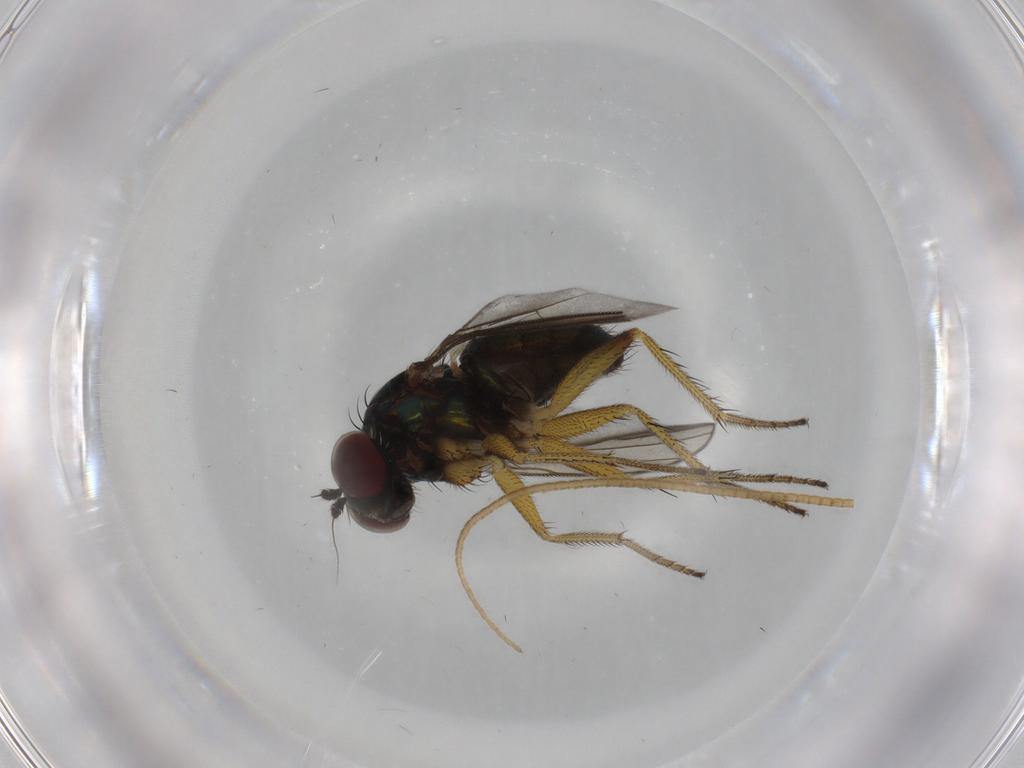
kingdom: Animalia
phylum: Arthropoda
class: Insecta
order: Diptera
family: Dolichopodidae
